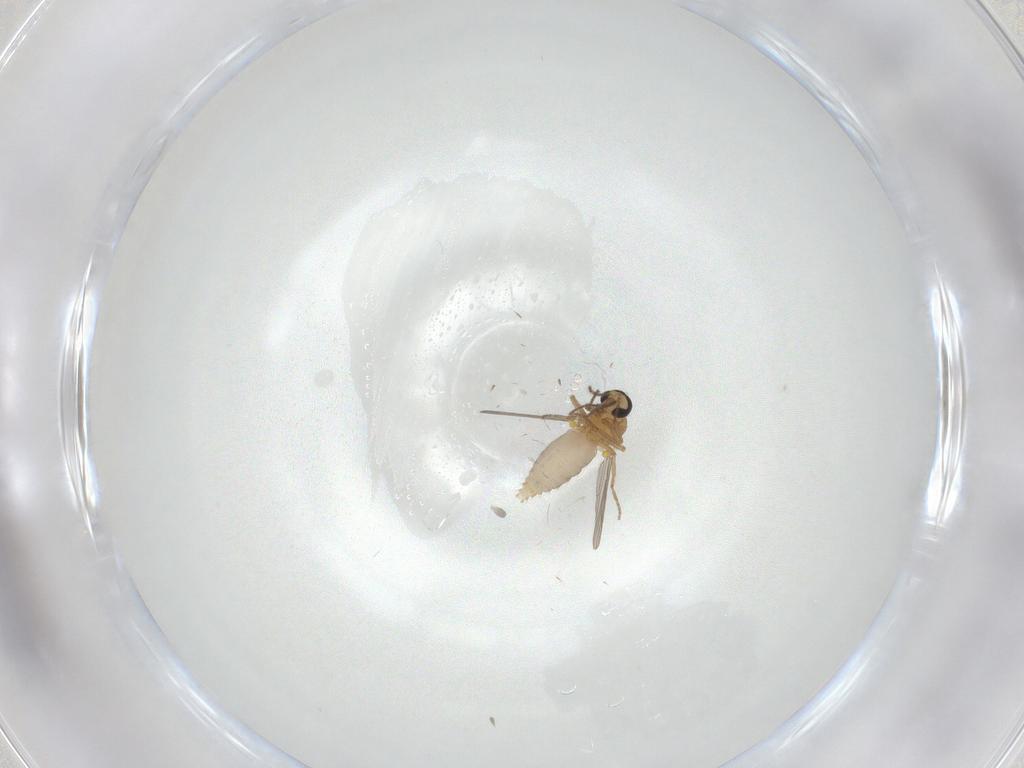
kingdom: Animalia
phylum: Arthropoda
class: Insecta
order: Diptera
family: Ceratopogonidae
